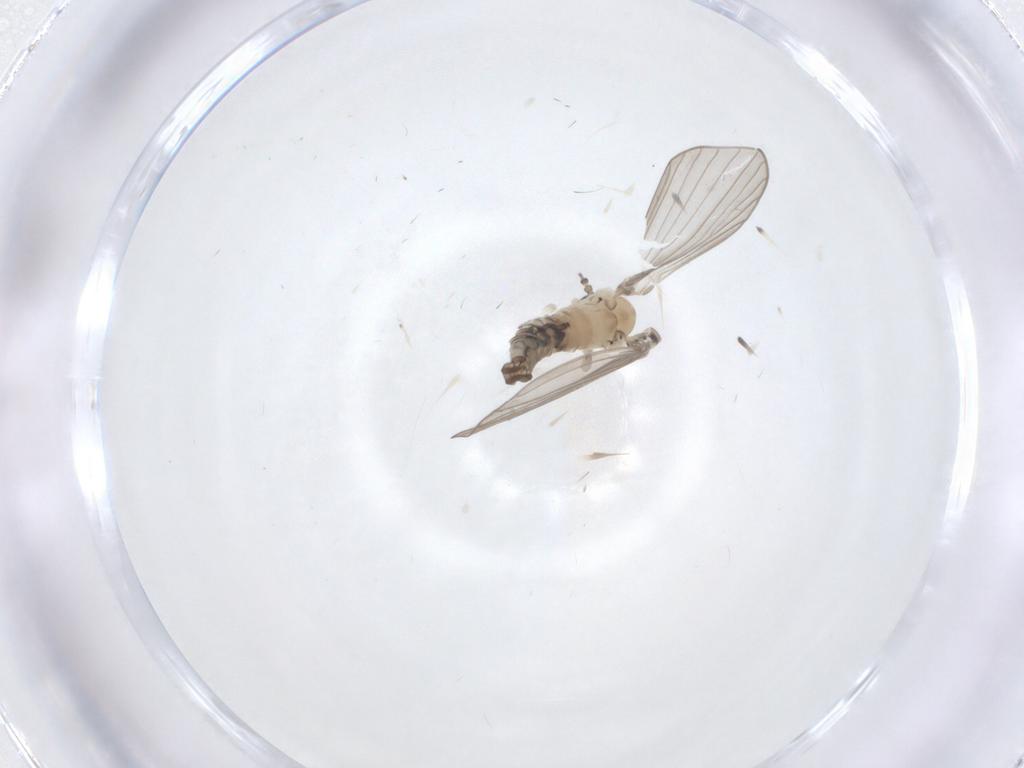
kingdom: Animalia
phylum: Arthropoda
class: Insecta
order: Diptera
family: Psychodidae
